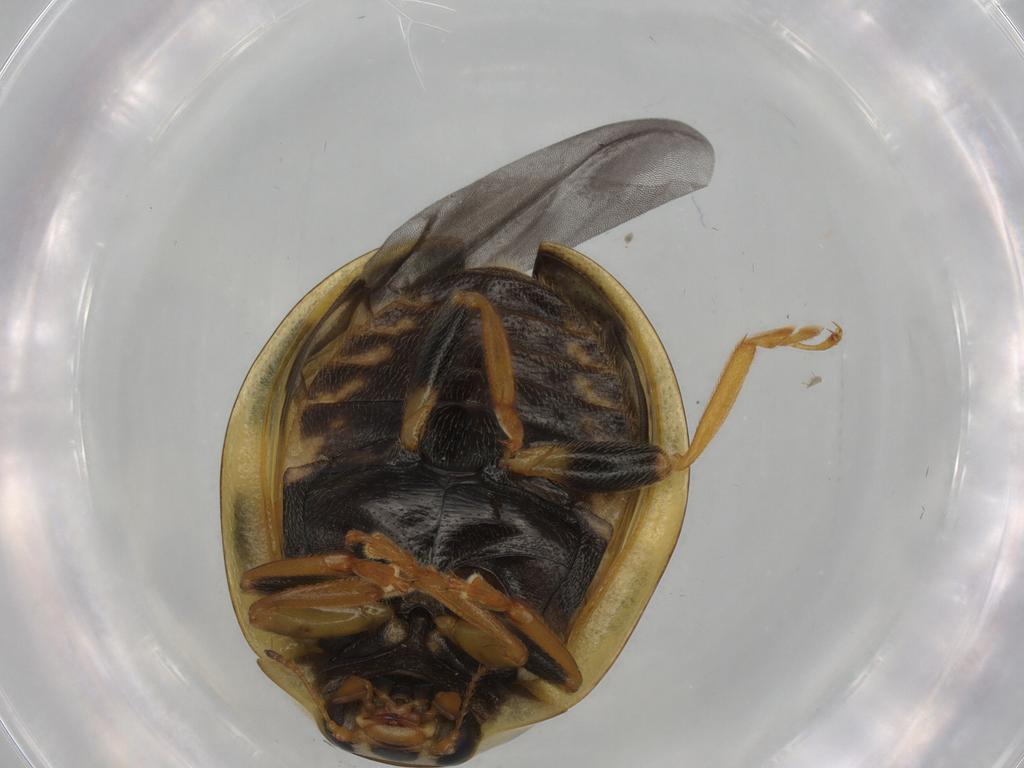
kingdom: Animalia
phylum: Arthropoda
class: Insecta
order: Coleoptera
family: Coccinellidae
